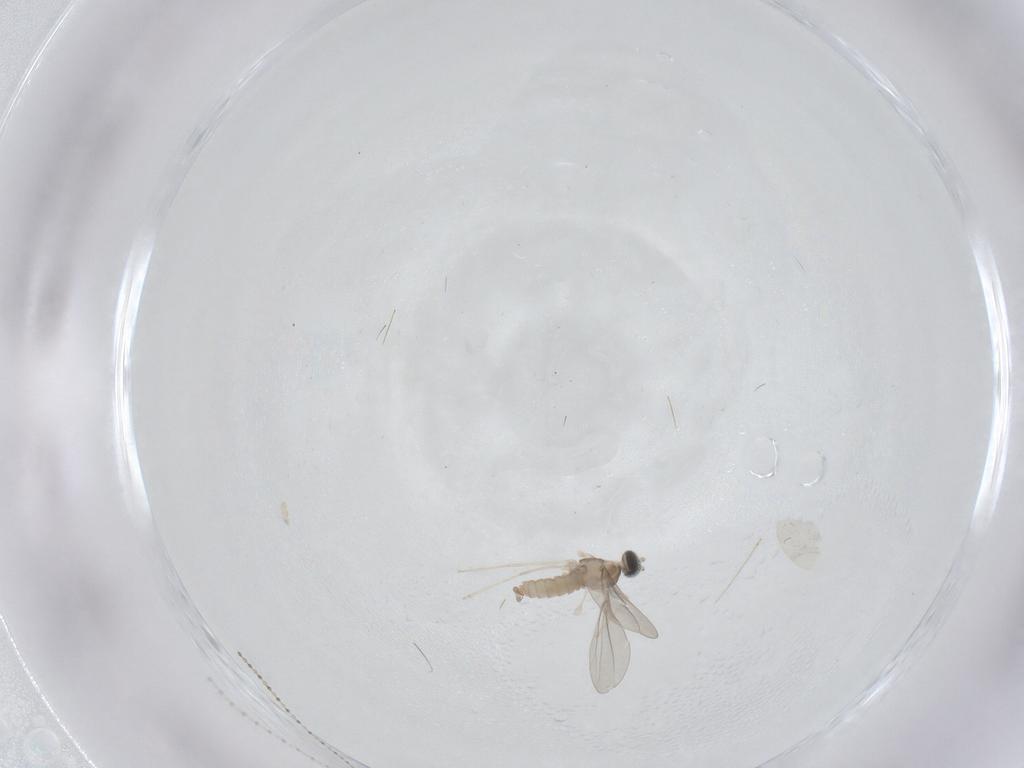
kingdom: Animalia
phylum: Arthropoda
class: Insecta
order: Diptera
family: Cecidomyiidae
